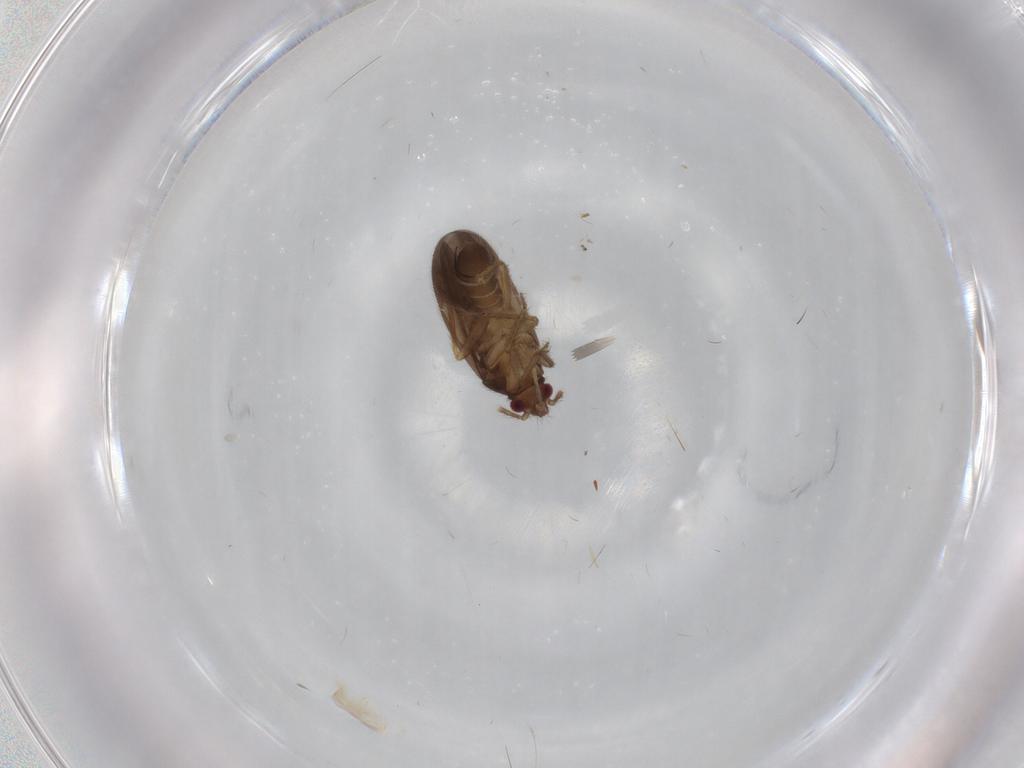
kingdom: Animalia
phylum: Arthropoda
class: Insecta
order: Hemiptera
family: Ceratocombidae
